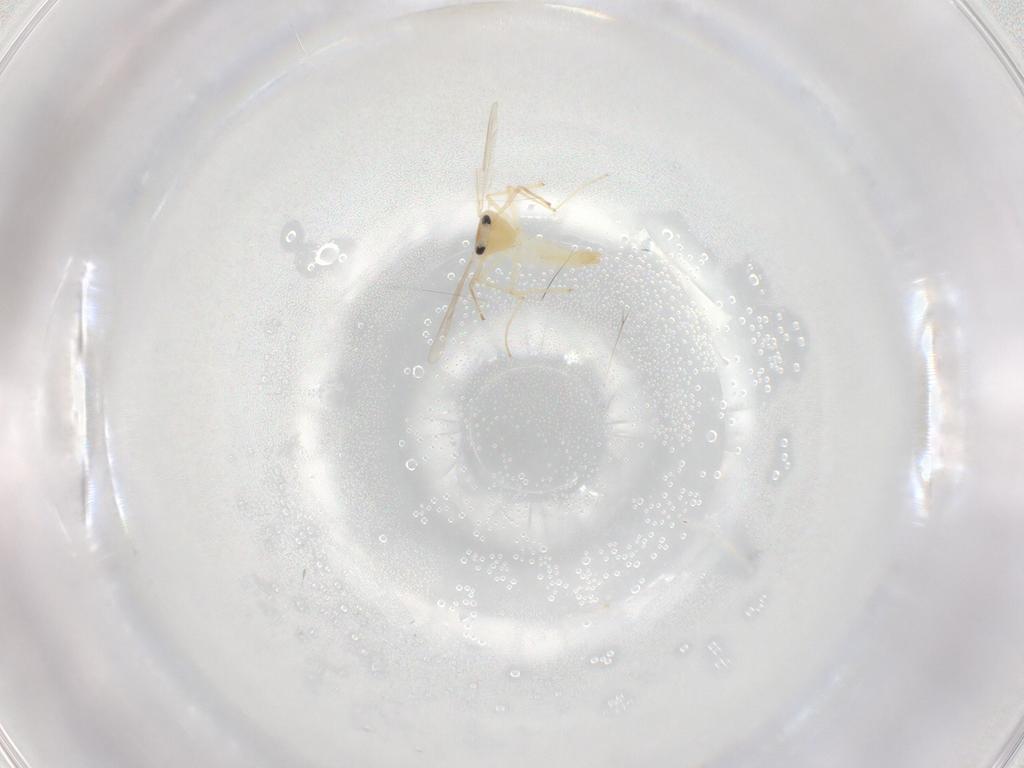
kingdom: Animalia
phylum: Arthropoda
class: Insecta
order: Diptera
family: Chironomidae
